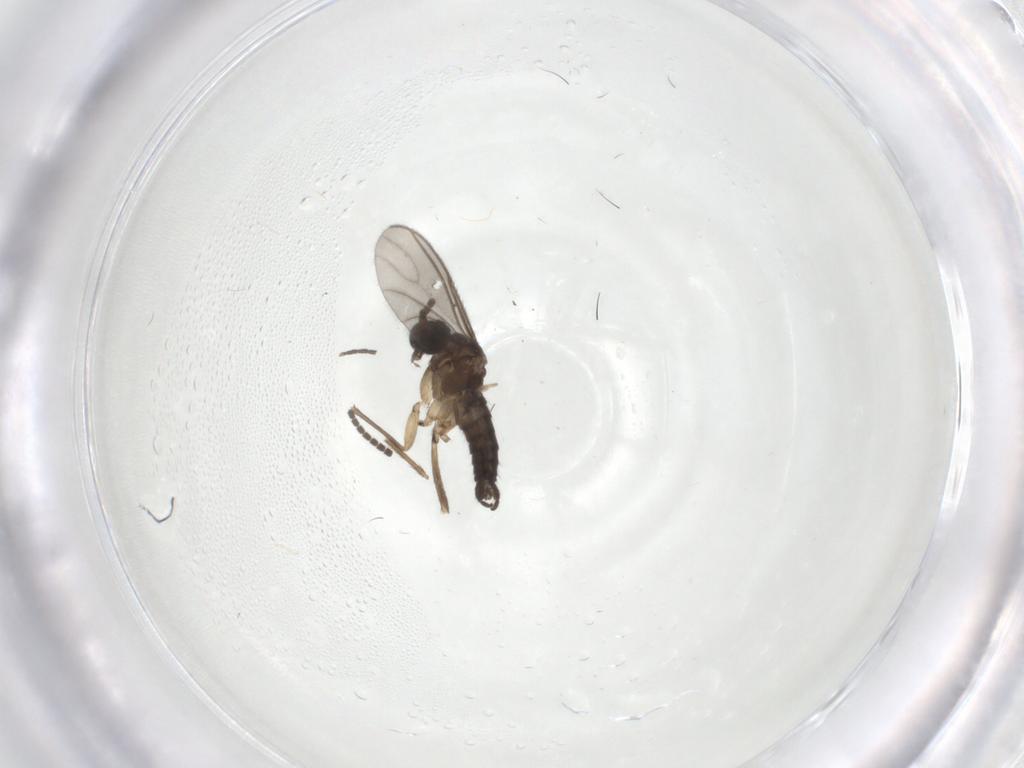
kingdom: Animalia
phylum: Arthropoda
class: Insecta
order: Diptera
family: Sciaridae
